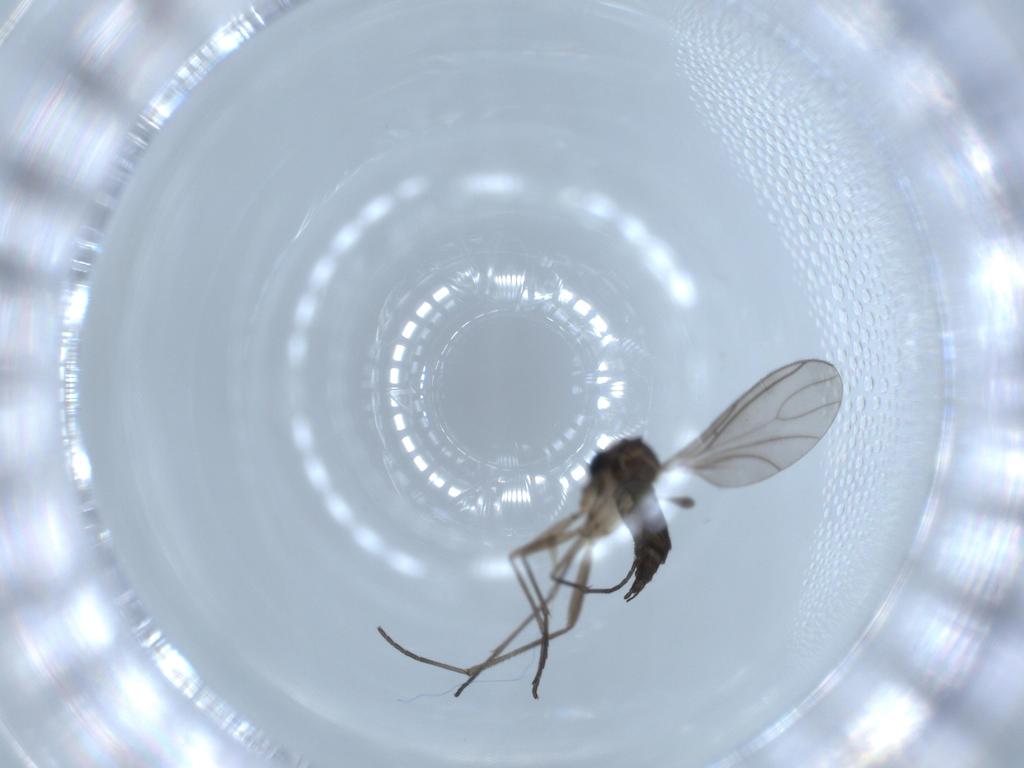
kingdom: Animalia
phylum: Arthropoda
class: Insecta
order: Diptera
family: Sciaridae
